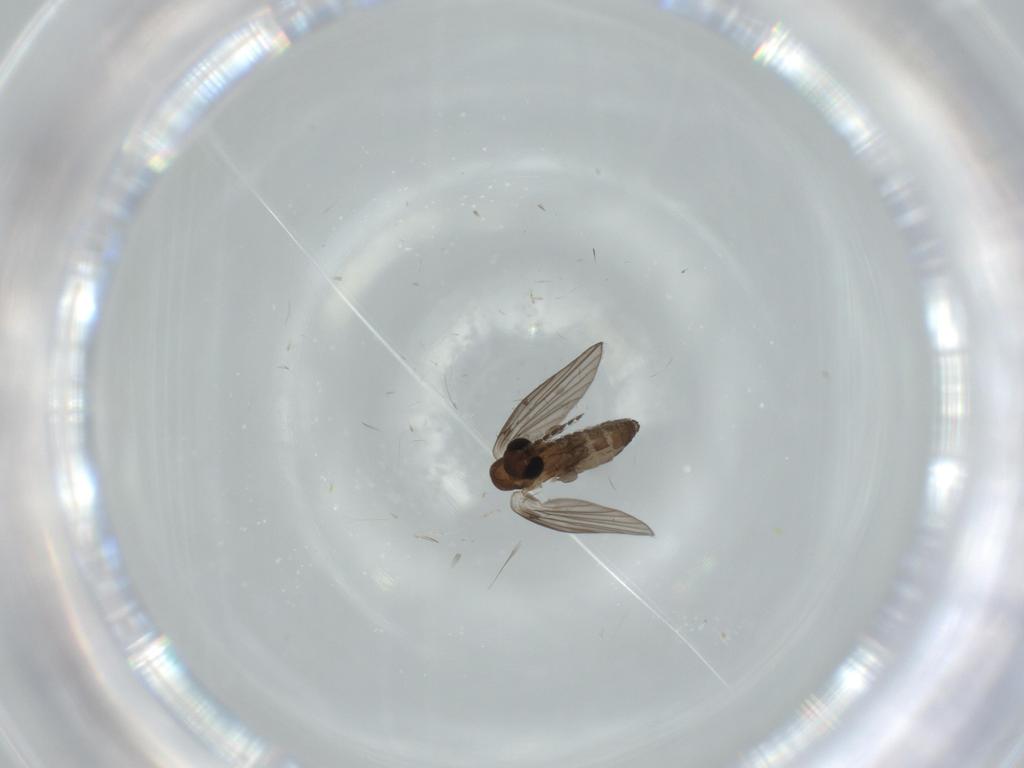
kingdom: Animalia
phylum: Arthropoda
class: Insecta
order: Diptera
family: Psychodidae
